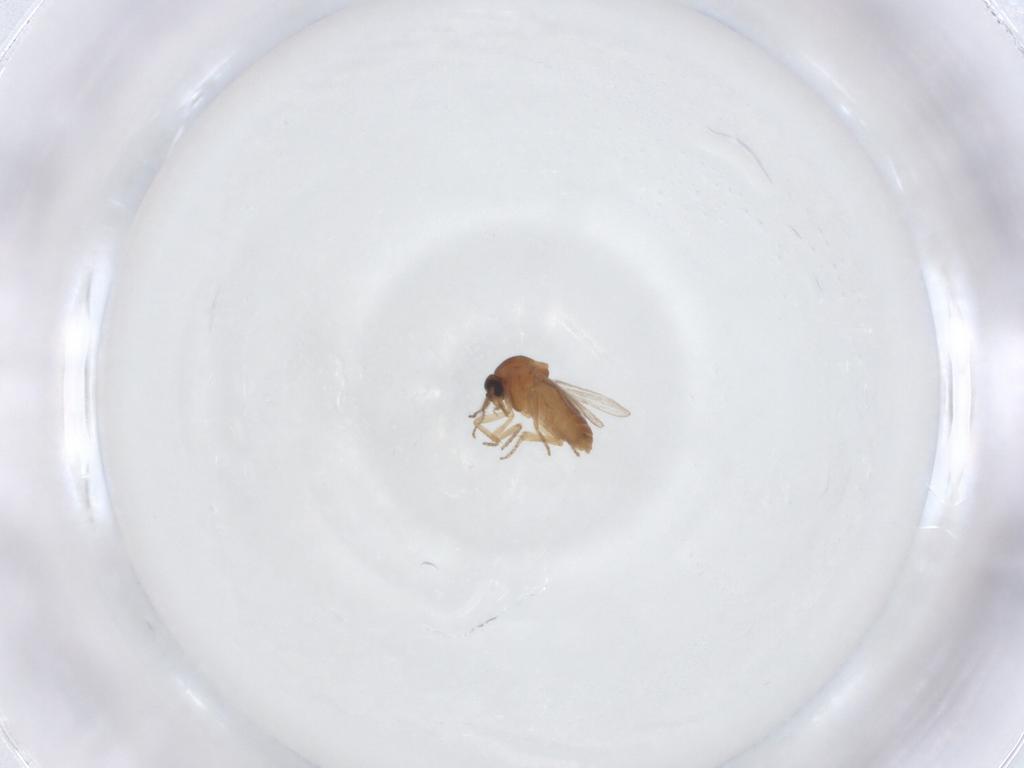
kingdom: Animalia
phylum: Arthropoda
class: Insecta
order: Diptera
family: Ceratopogonidae
